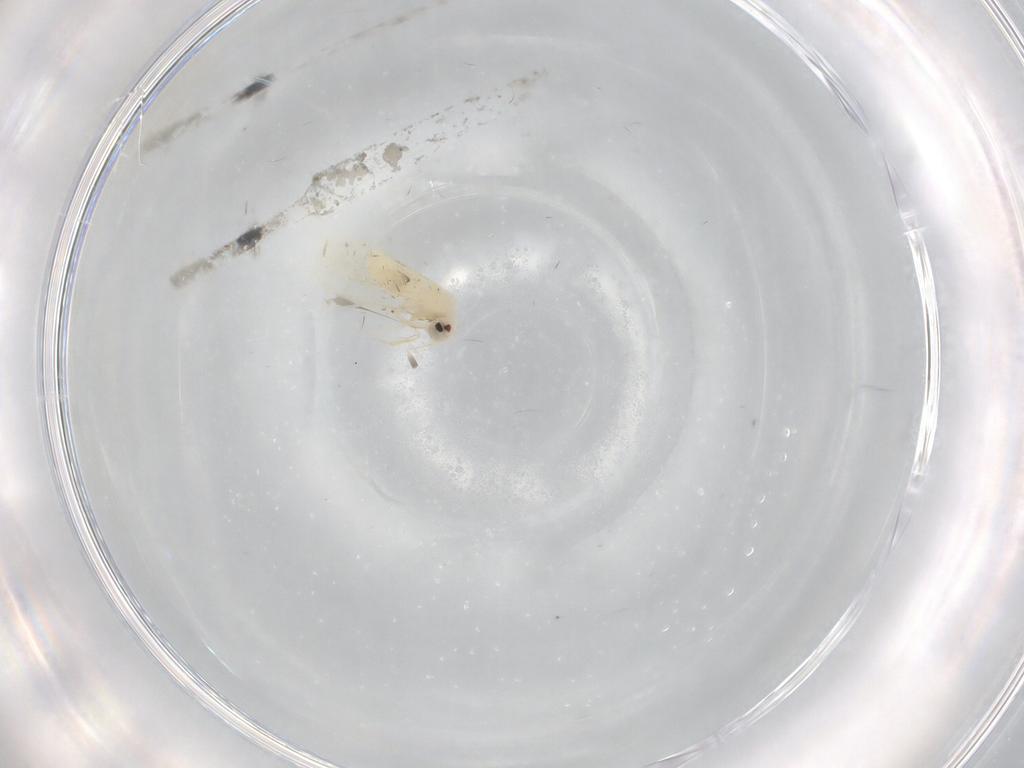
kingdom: Animalia
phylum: Arthropoda
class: Insecta
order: Hemiptera
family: Aleyrodidae
